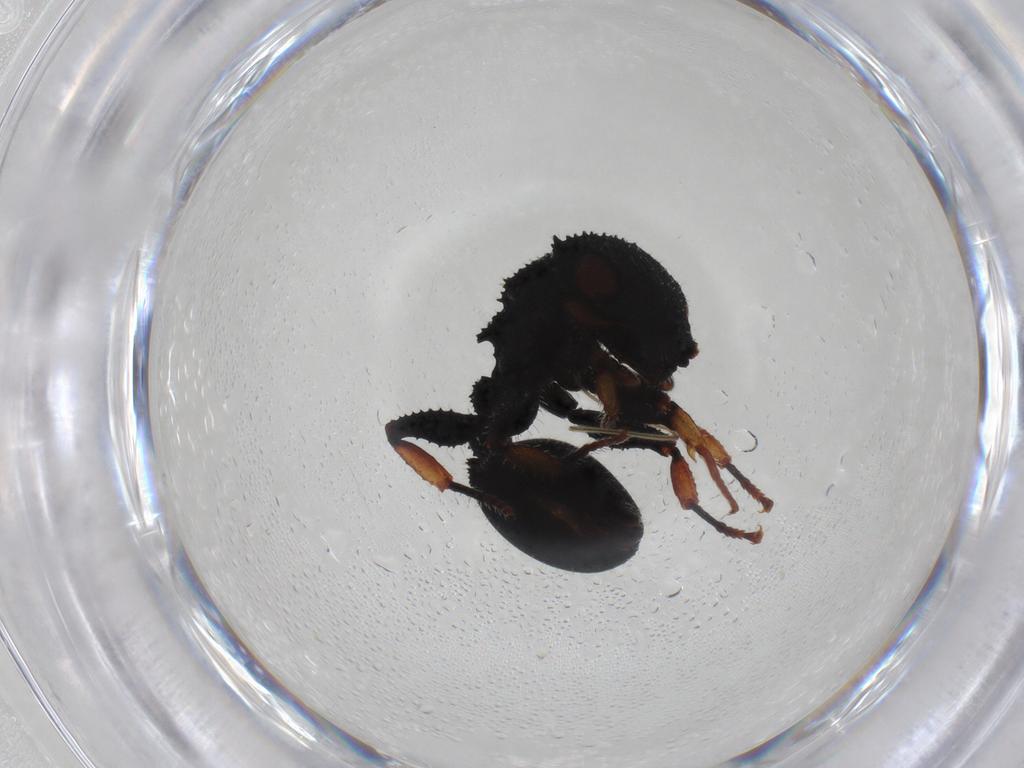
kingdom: Animalia
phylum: Arthropoda
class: Insecta
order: Hymenoptera
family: Formicidae
